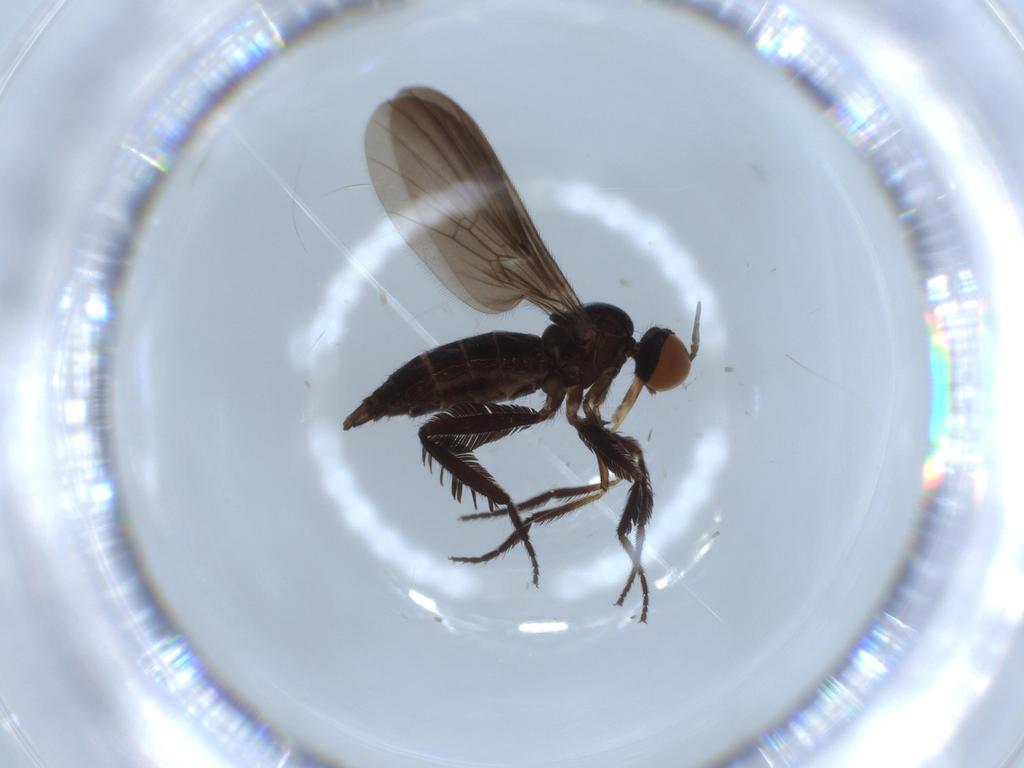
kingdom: Animalia
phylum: Arthropoda
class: Insecta
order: Diptera
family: Empididae
